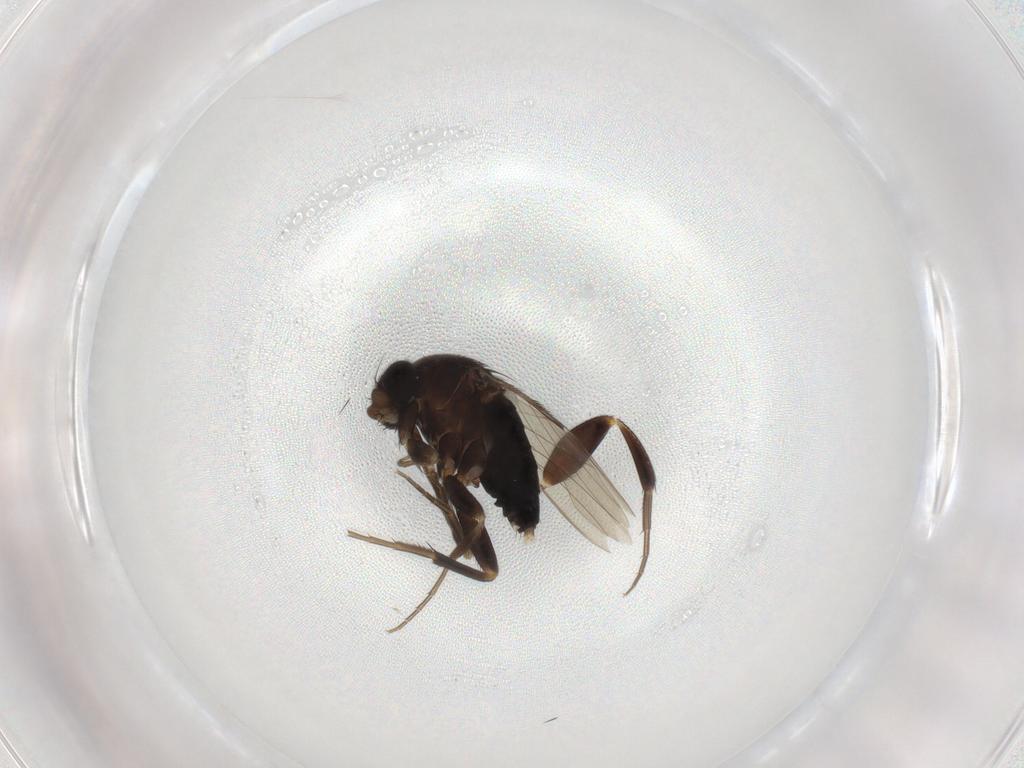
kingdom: Animalia
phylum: Arthropoda
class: Insecta
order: Diptera
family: Phoridae
